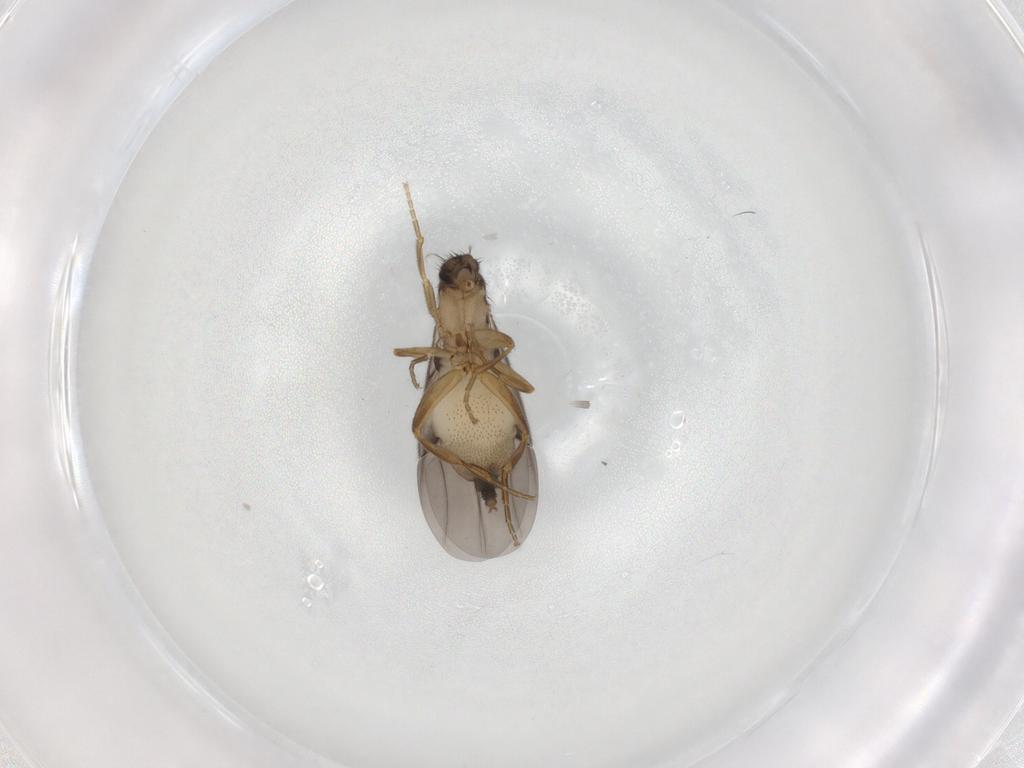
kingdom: Animalia
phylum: Arthropoda
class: Insecta
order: Diptera
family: Phoridae
